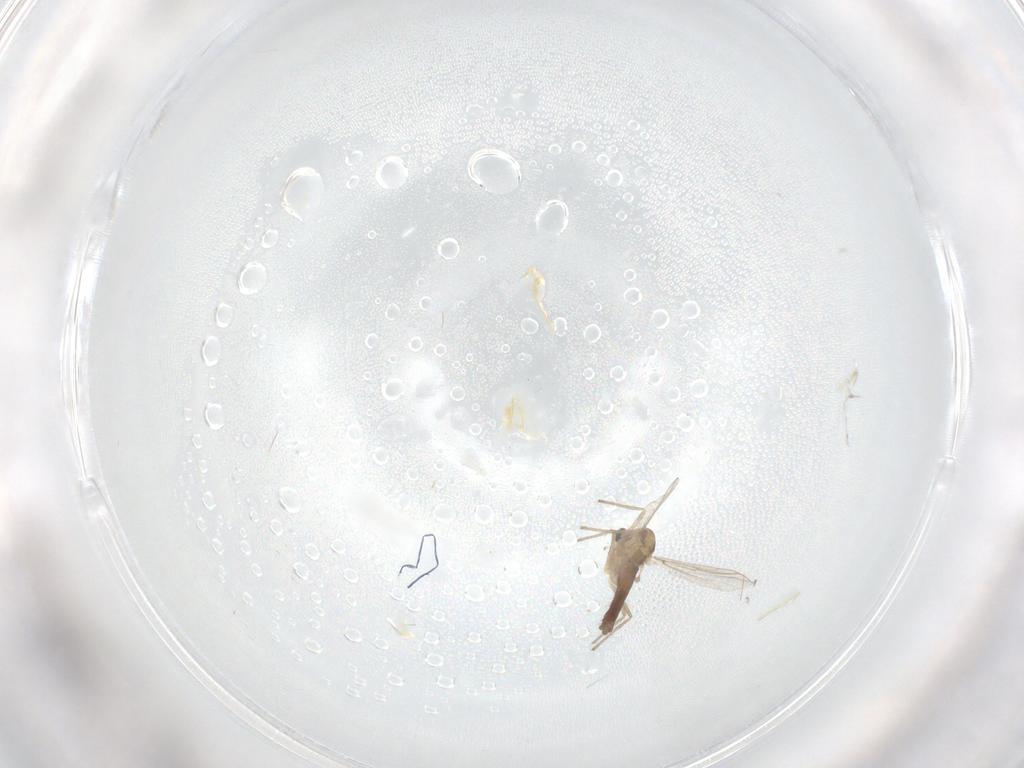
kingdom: Animalia
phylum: Arthropoda
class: Insecta
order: Diptera
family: Chironomidae
